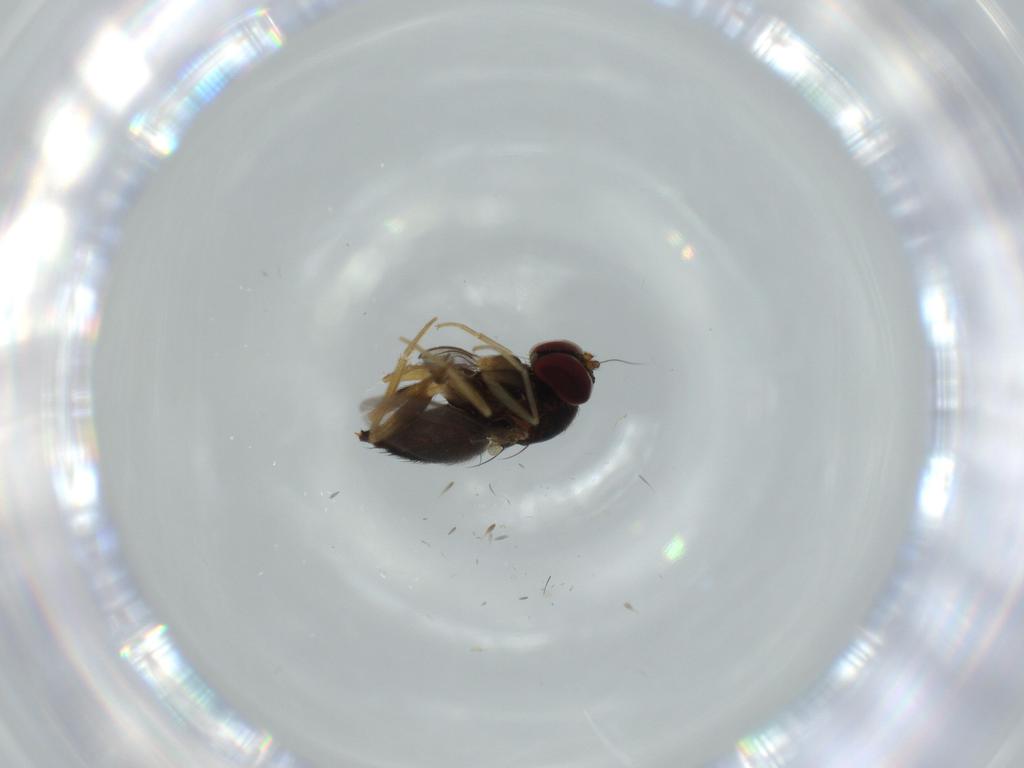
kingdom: Animalia
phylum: Arthropoda
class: Insecta
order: Diptera
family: Dolichopodidae
